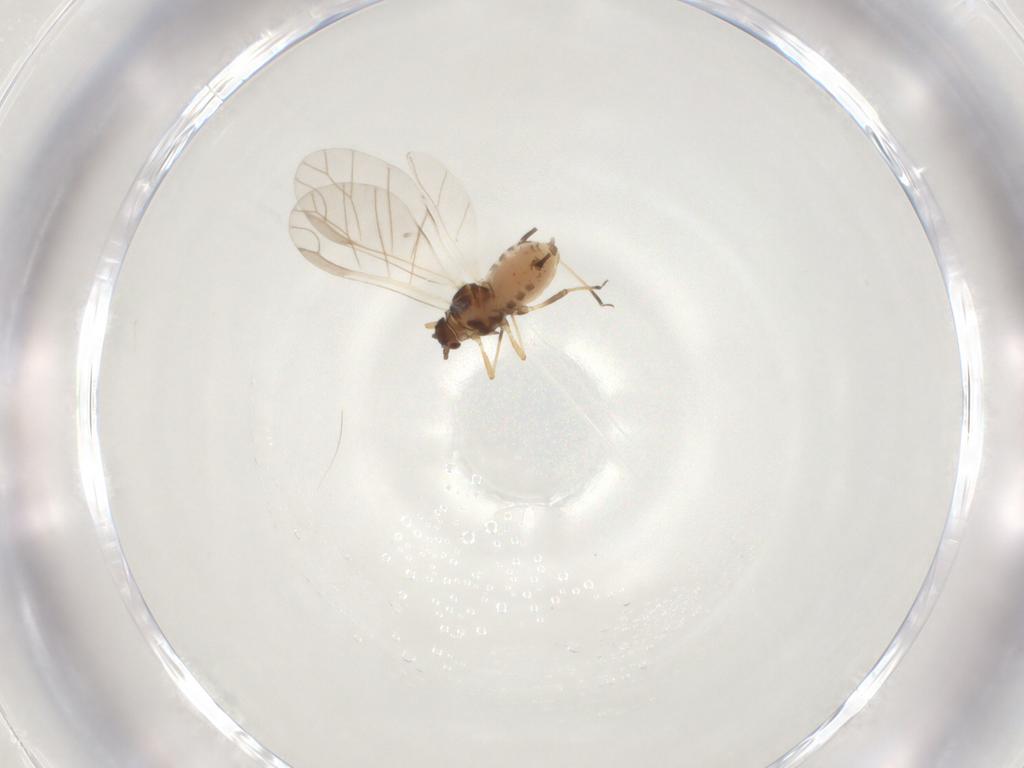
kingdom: Animalia
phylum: Arthropoda
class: Insecta
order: Hemiptera
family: Aphididae
